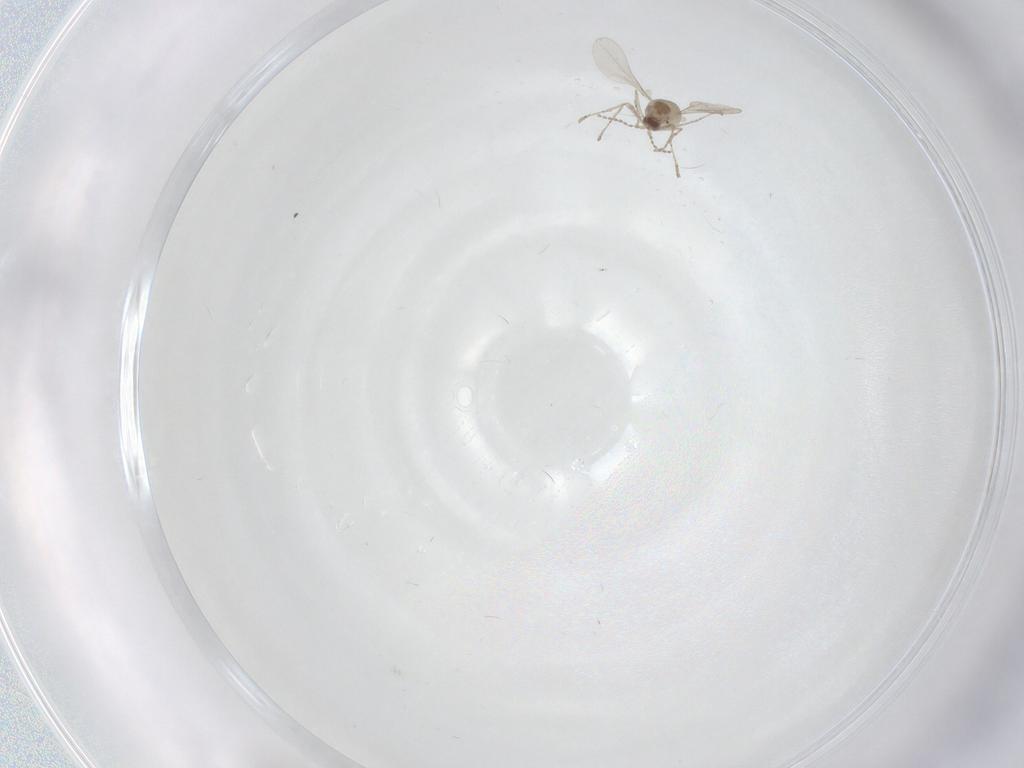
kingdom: Animalia
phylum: Arthropoda
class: Insecta
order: Diptera
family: Cecidomyiidae
